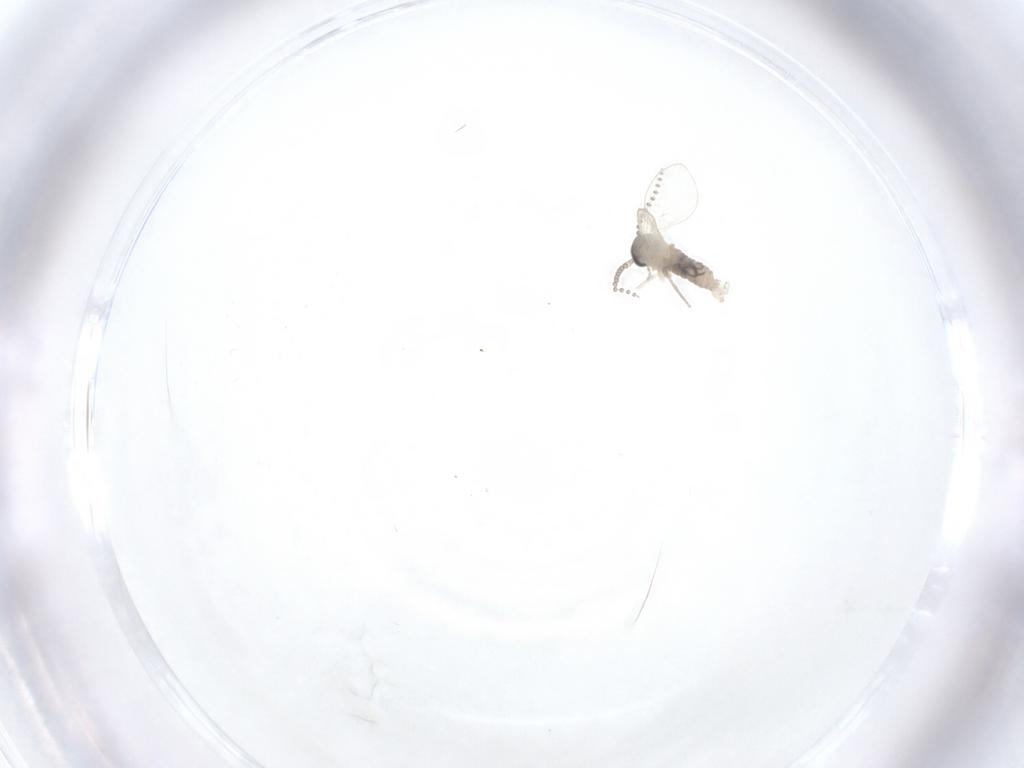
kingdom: Animalia
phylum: Arthropoda
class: Insecta
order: Diptera
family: Psychodidae
